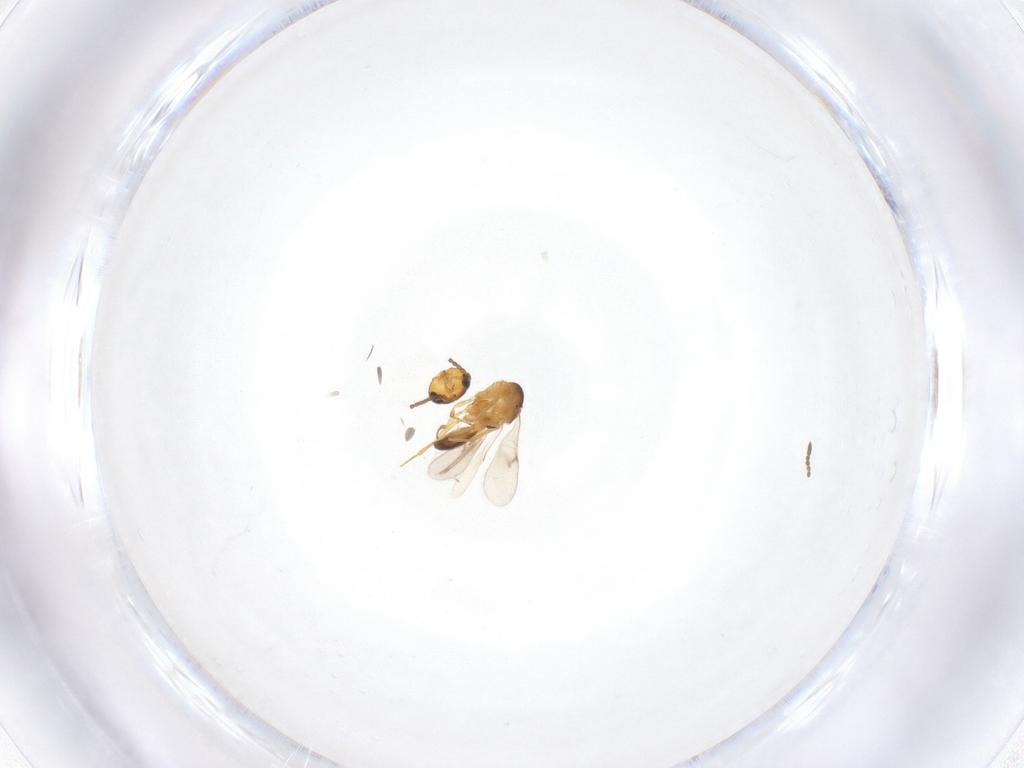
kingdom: Animalia
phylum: Arthropoda
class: Insecta
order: Hymenoptera
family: Scelionidae
